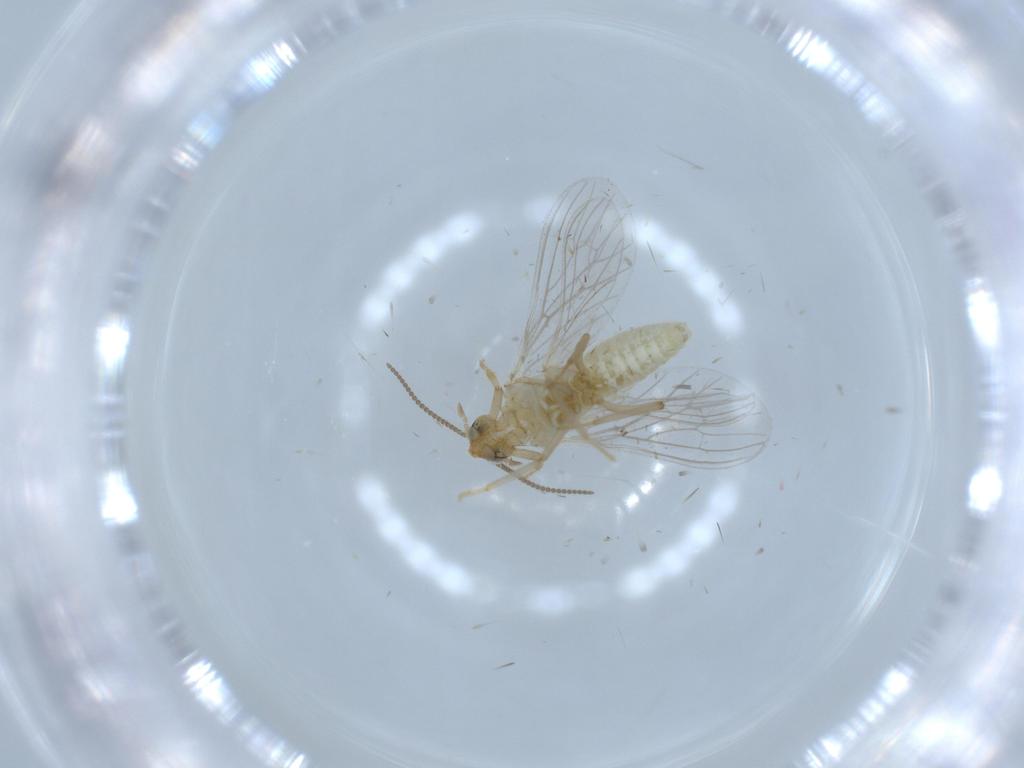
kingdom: Animalia
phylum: Arthropoda
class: Insecta
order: Neuroptera
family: Coniopterygidae
